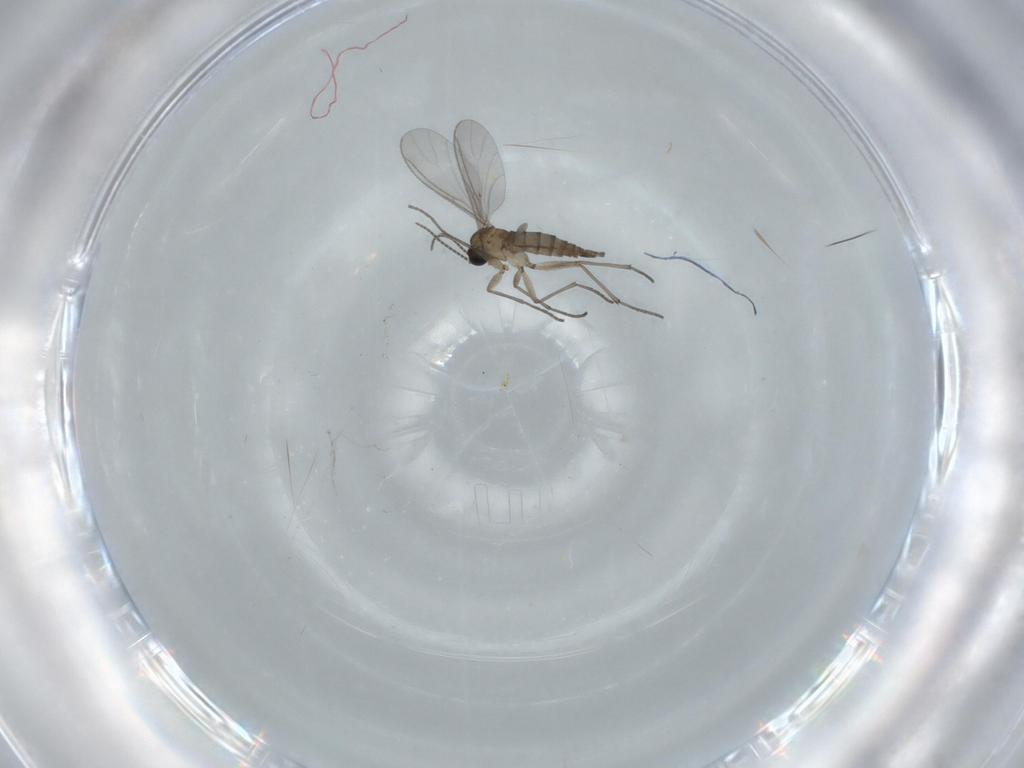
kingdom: Animalia
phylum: Arthropoda
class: Insecta
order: Diptera
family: Sciaridae
